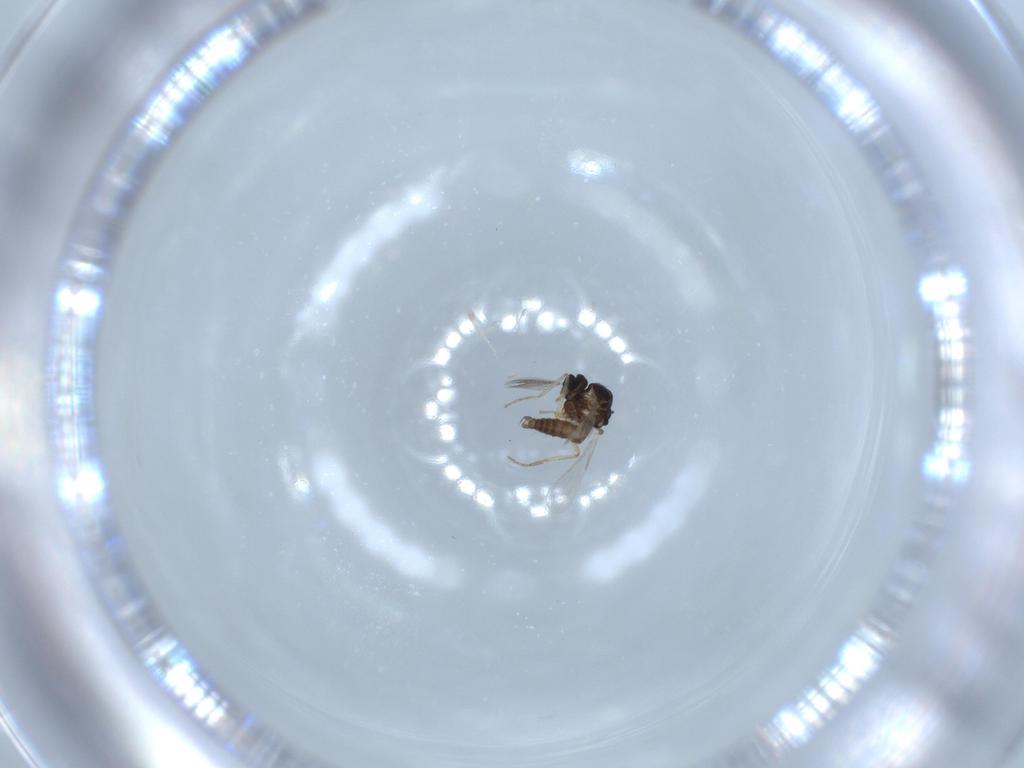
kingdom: Animalia
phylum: Arthropoda
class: Insecta
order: Diptera
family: Ceratopogonidae
